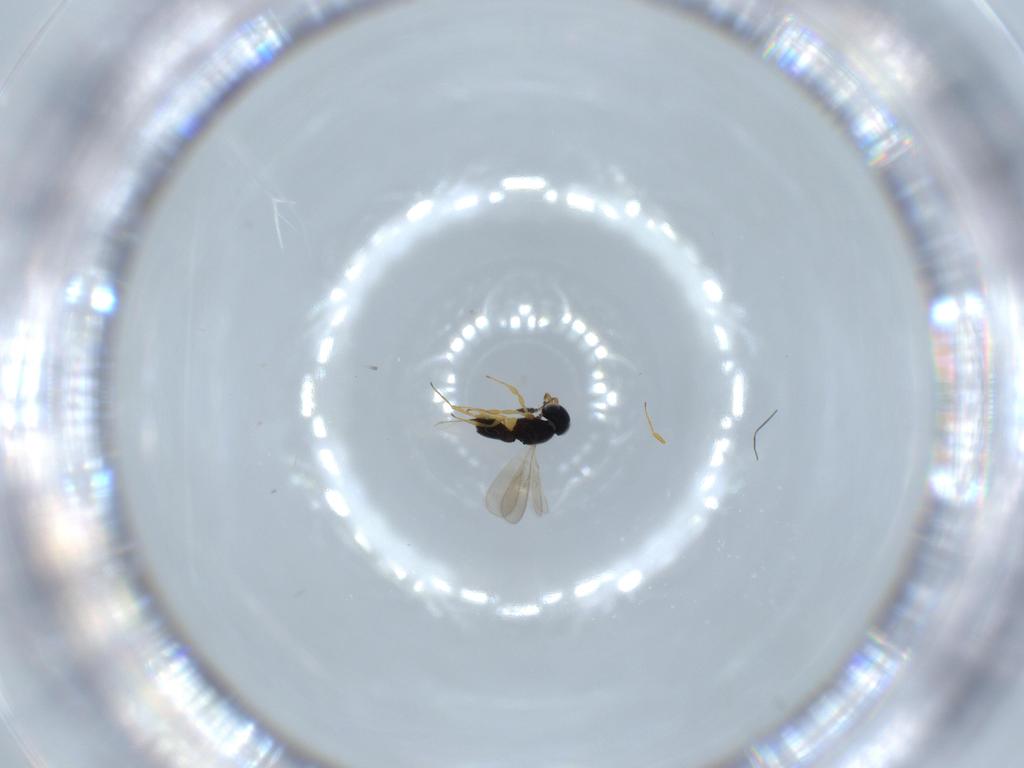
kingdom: Animalia
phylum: Arthropoda
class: Insecta
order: Hymenoptera
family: Scelionidae
